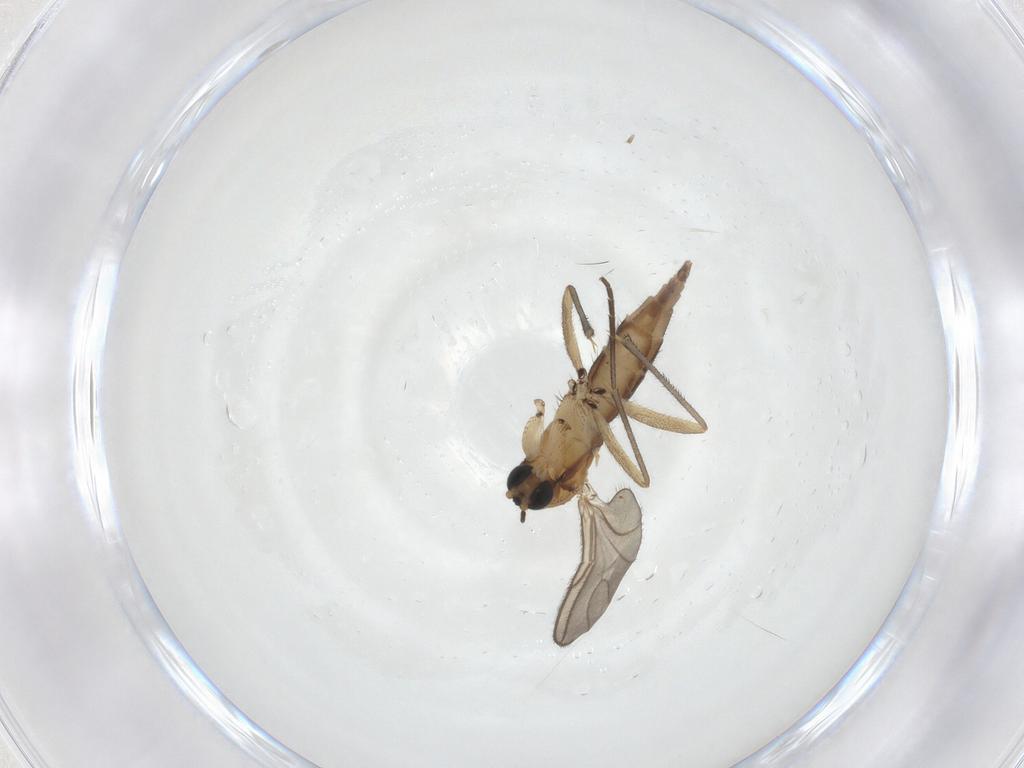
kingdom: Animalia
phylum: Arthropoda
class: Insecta
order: Diptera
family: Sciaridae
